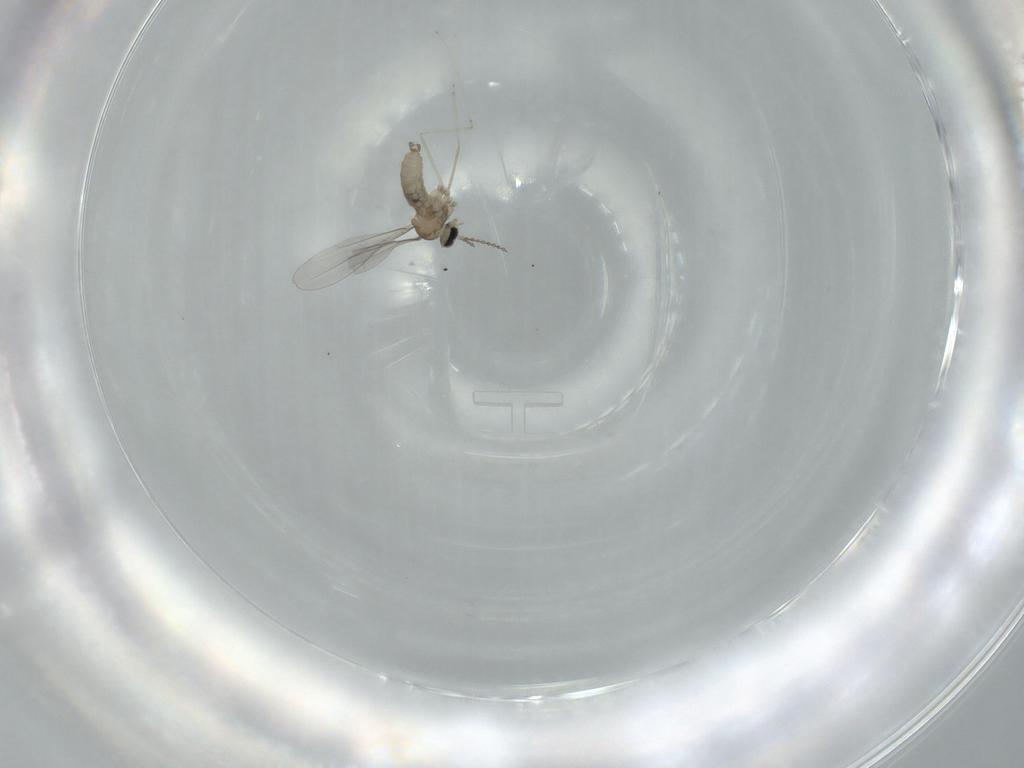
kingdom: Animalia
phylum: Arthropoda
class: Insecta
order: Diptera
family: Cecidomyiidae
